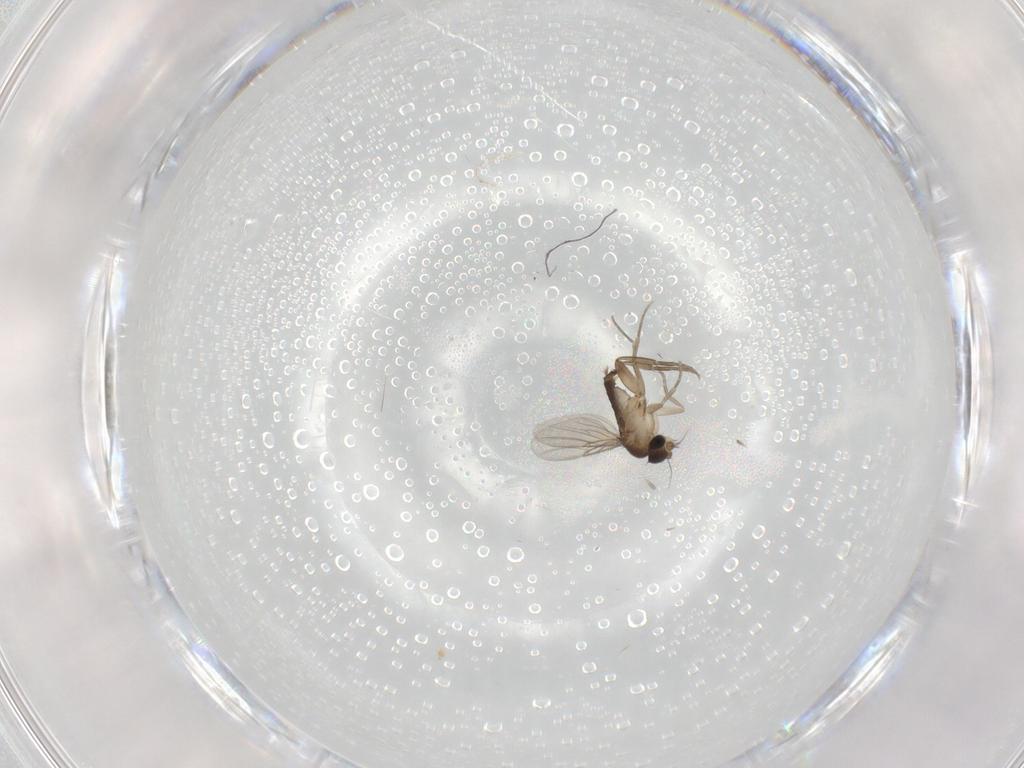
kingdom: Animalia
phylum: Arthropoda
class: Insecta
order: Diptera
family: Phoridae
